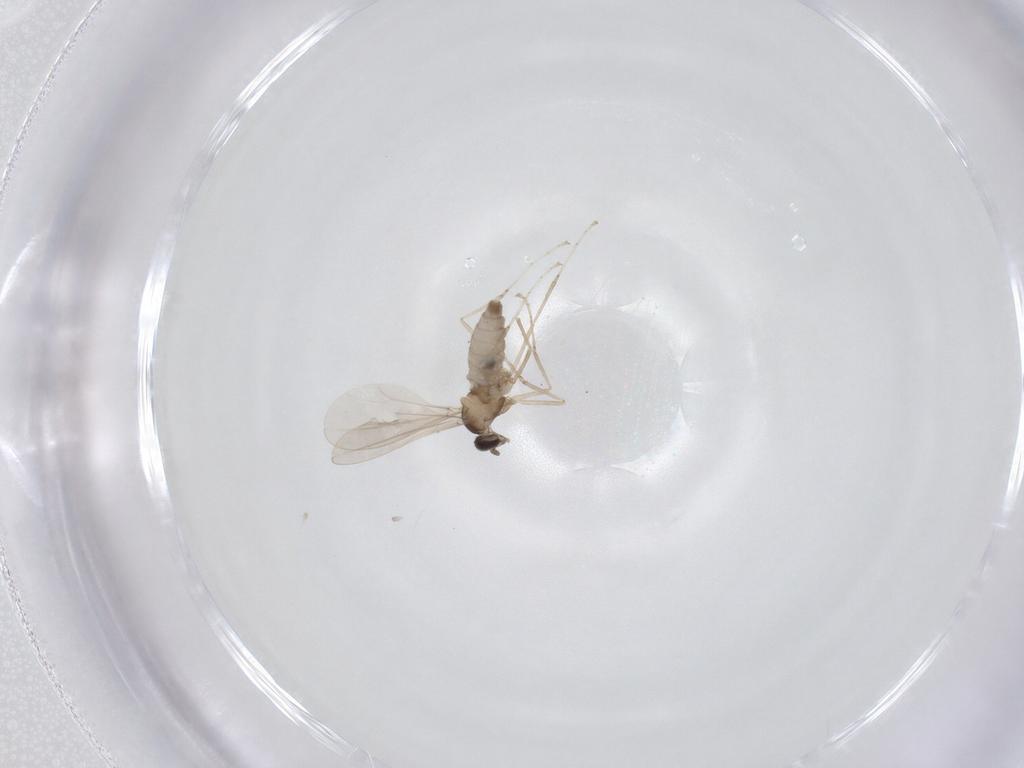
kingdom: Animalia
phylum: Arthropoda
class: Insecta
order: Diptera
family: Cecidomyiidae
